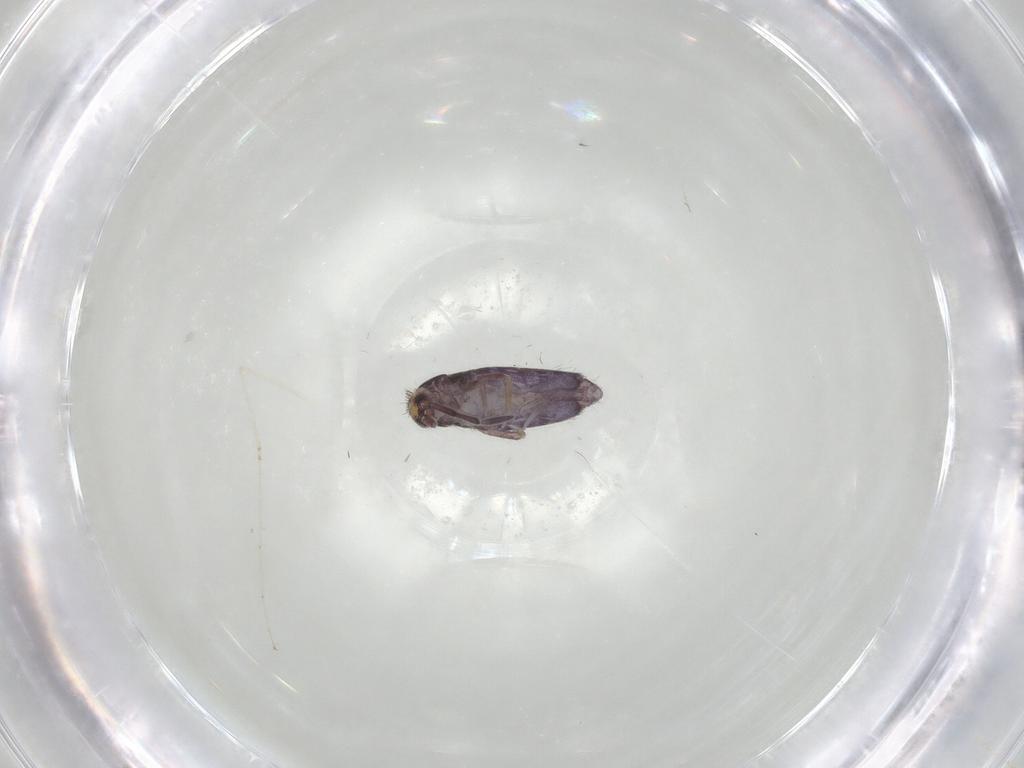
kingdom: Animalia
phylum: Arthropoda
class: Collembola
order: Entomobryomorpha
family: Entomobryidae
